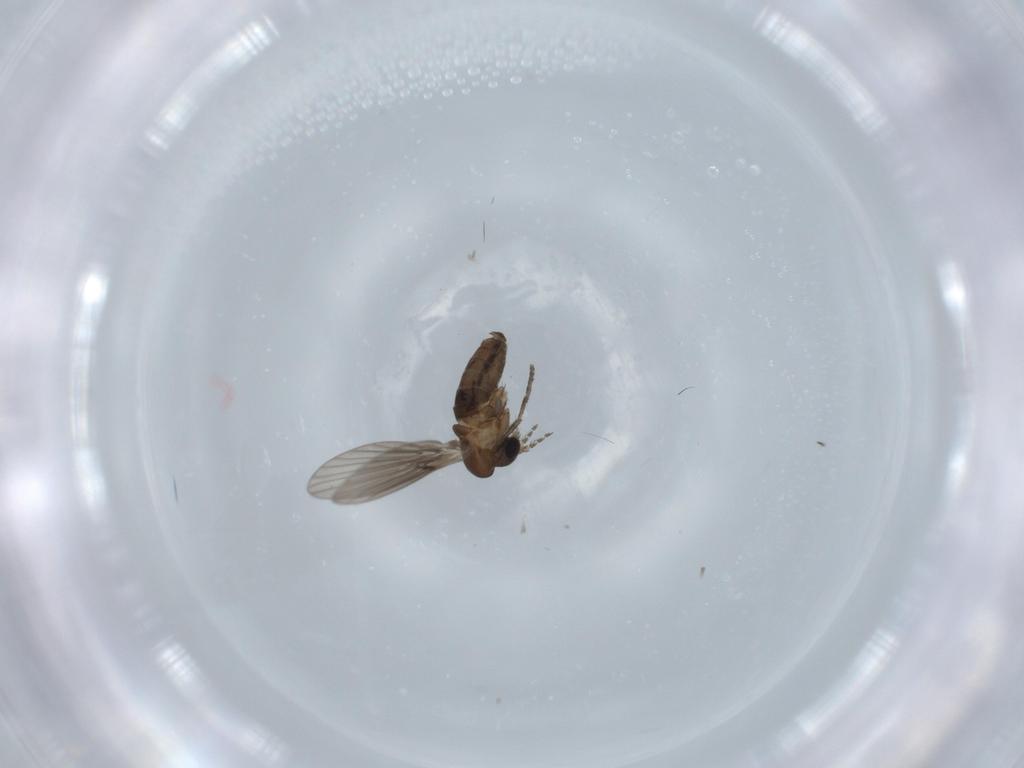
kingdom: Animalia
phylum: Arthropoda
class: Insecta
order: Diptera
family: Psychodidae
